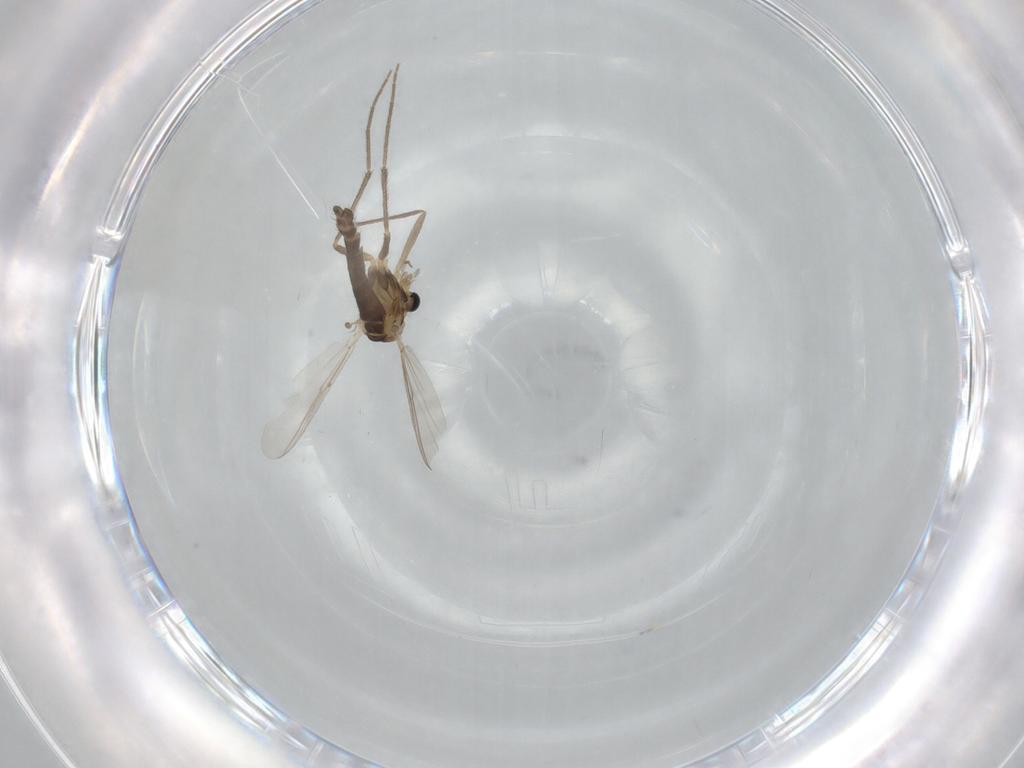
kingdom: Animalia
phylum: Arthropoda
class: Insecta
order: Diptera
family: Chironomidae
